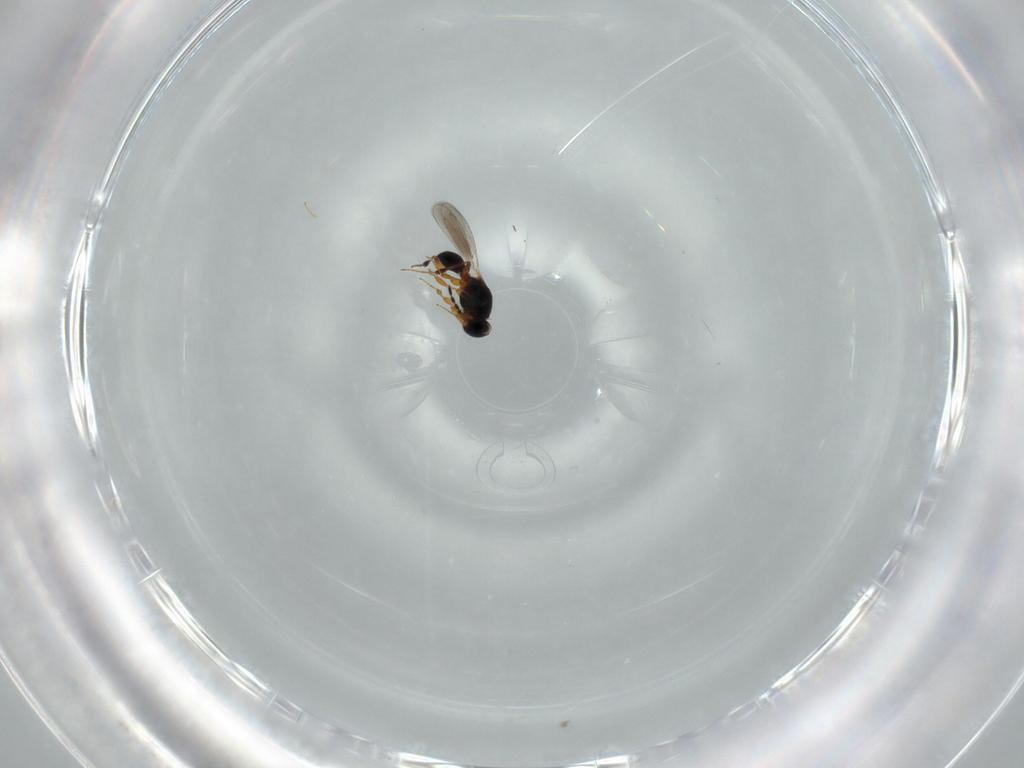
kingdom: Animalia
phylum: Arthropoda
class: Insecta
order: Hymenoptera
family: Platygastridae
